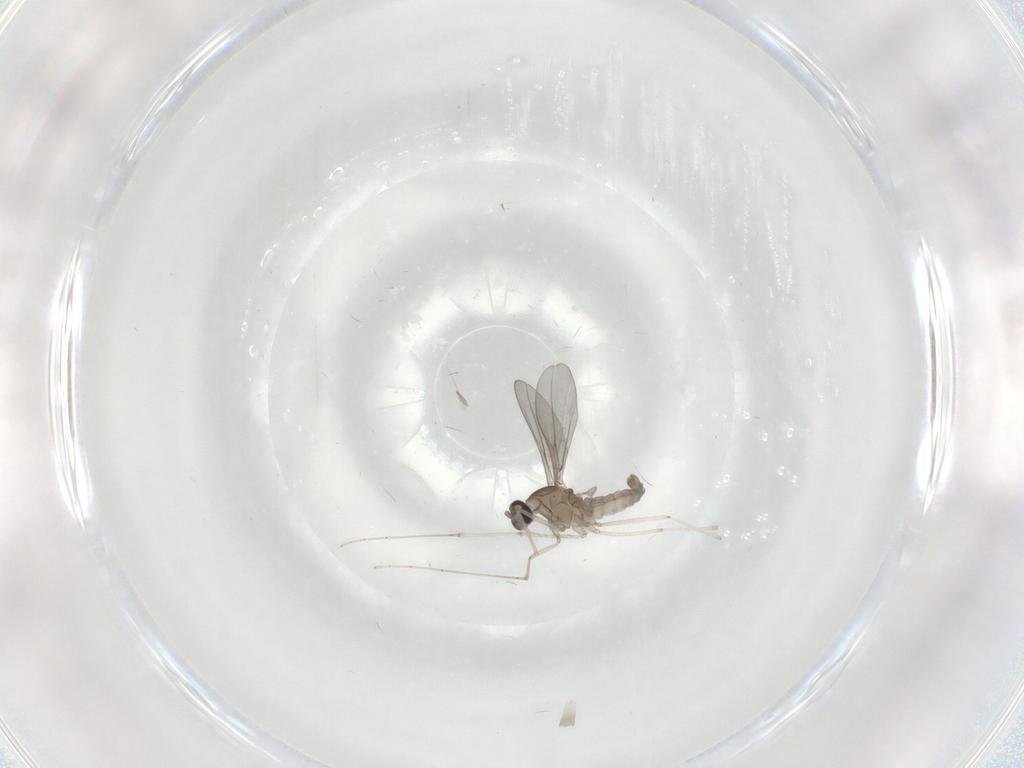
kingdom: Animalia
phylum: Arthropoda
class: Insecta
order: Diptera
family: Cecidomyiidae
